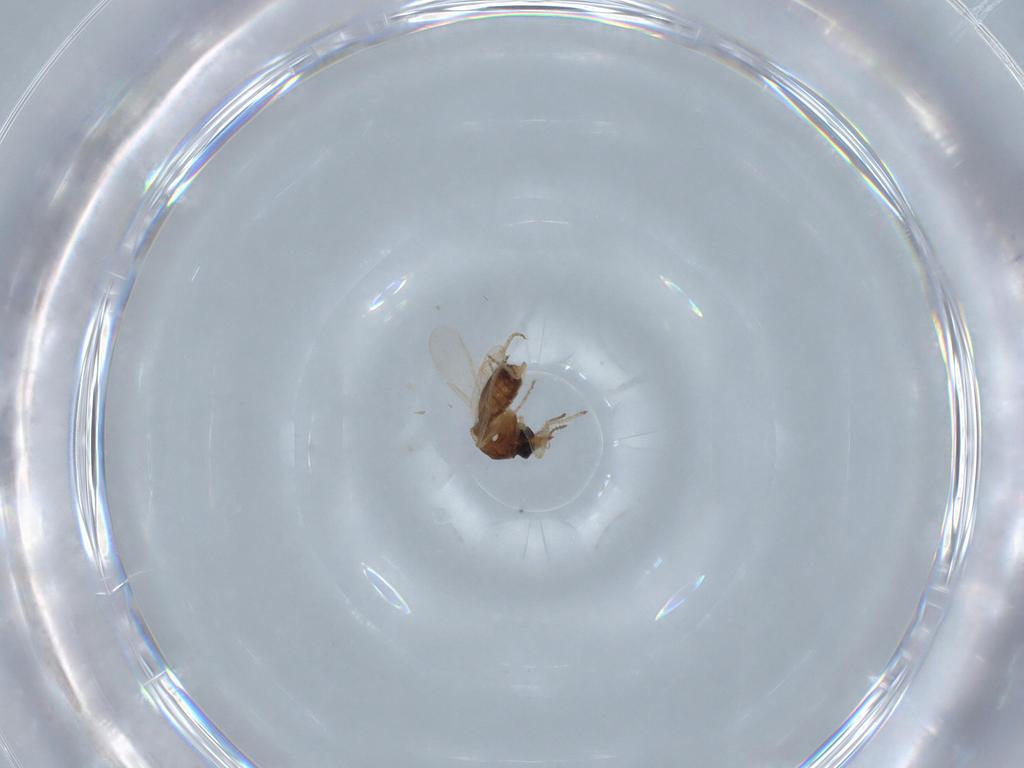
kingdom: Animalia
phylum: Arthropoda
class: Insecta
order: Diptera
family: Ceratopogonidae
